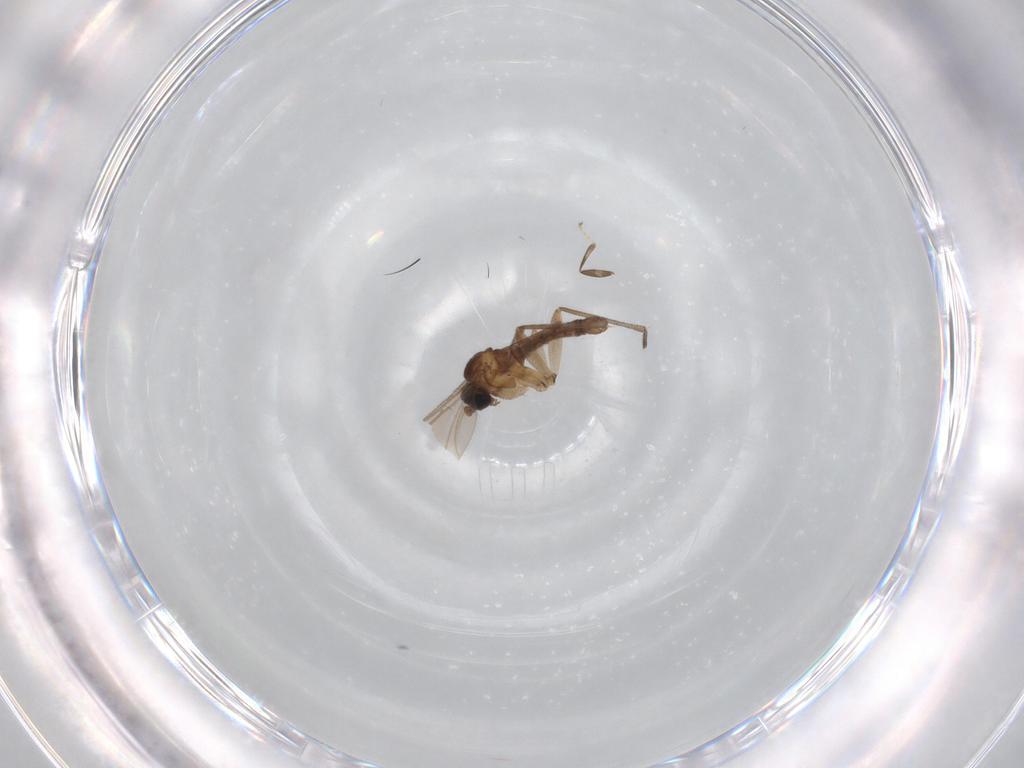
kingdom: Animalia
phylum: Arthropoda
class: Insecta
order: Diptera
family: Sciaridae
